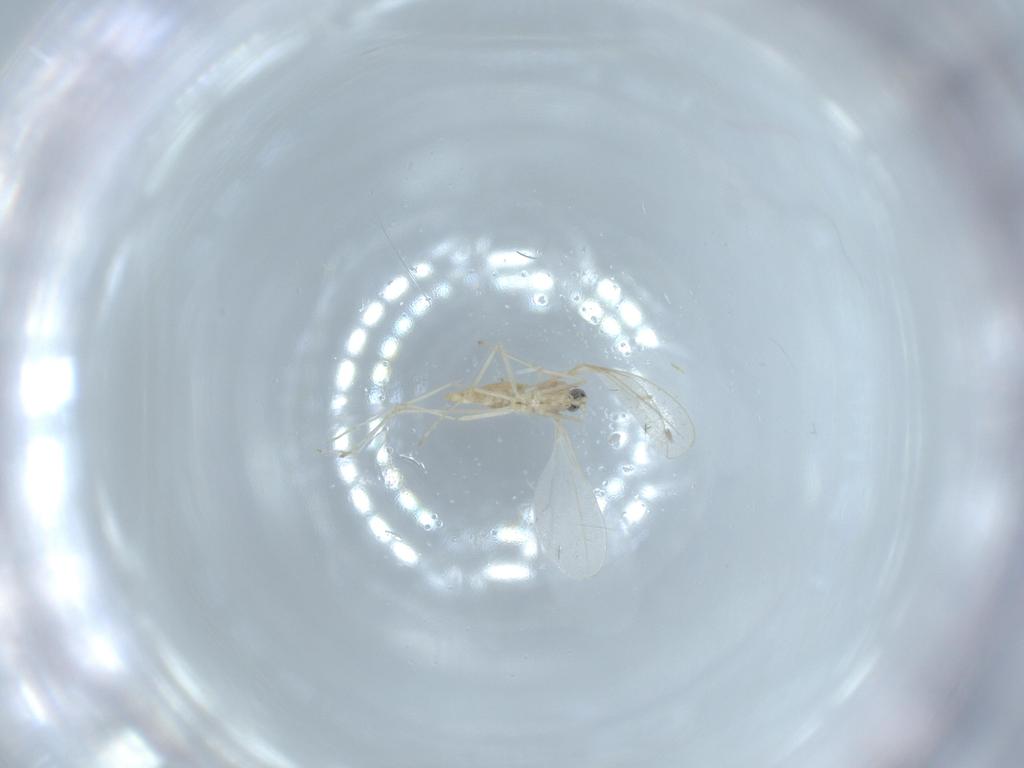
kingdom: Animalia
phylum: Arthropoda
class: Insecta
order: Diptera
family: Cecidomyiidae
